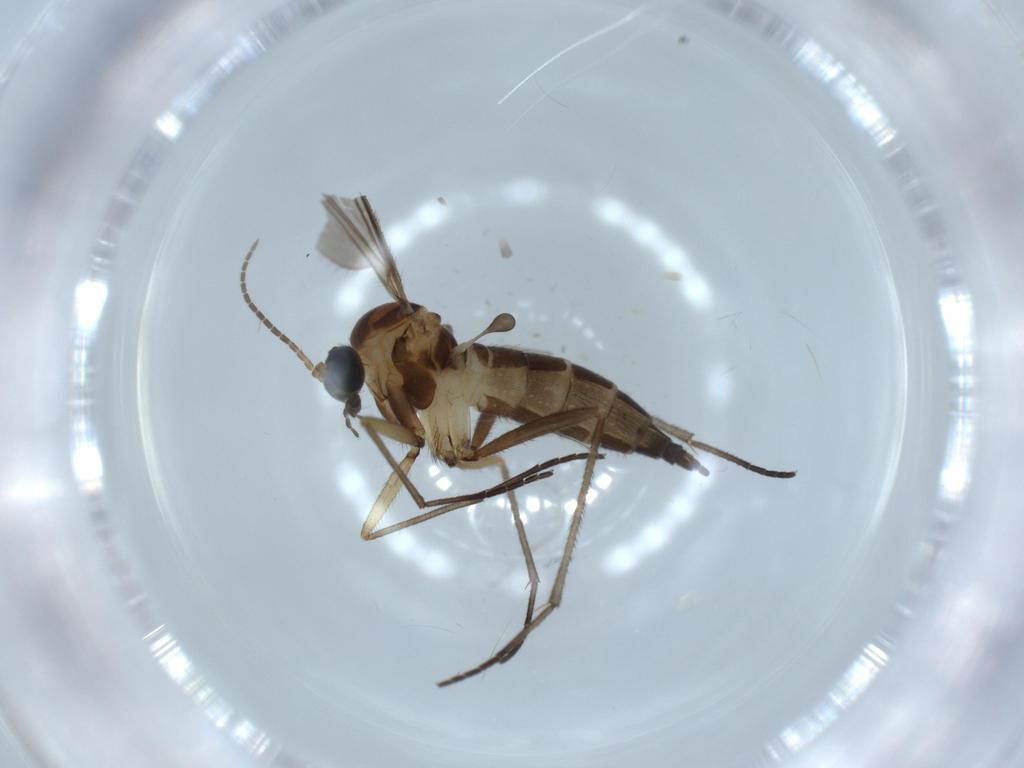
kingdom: Animalia
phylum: Arthropoda
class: Insecta
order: Diptera
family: Sciaridae
